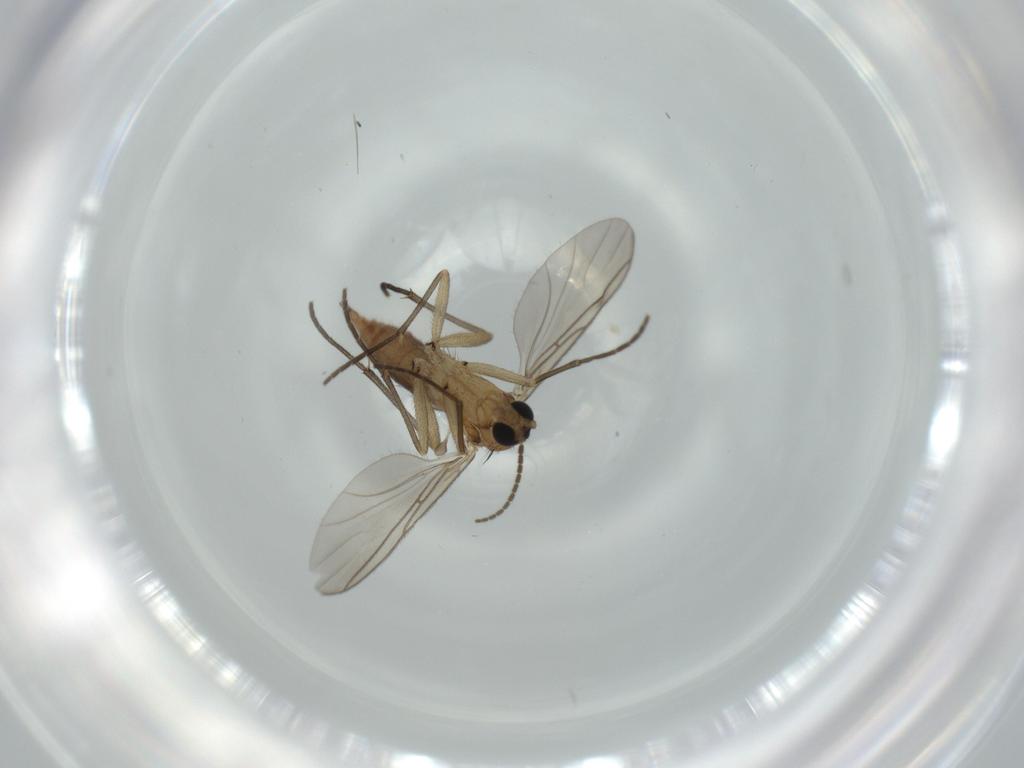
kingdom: Animalia
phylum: Arthropoda
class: Insecta
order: Diptera
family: Sciaridae
